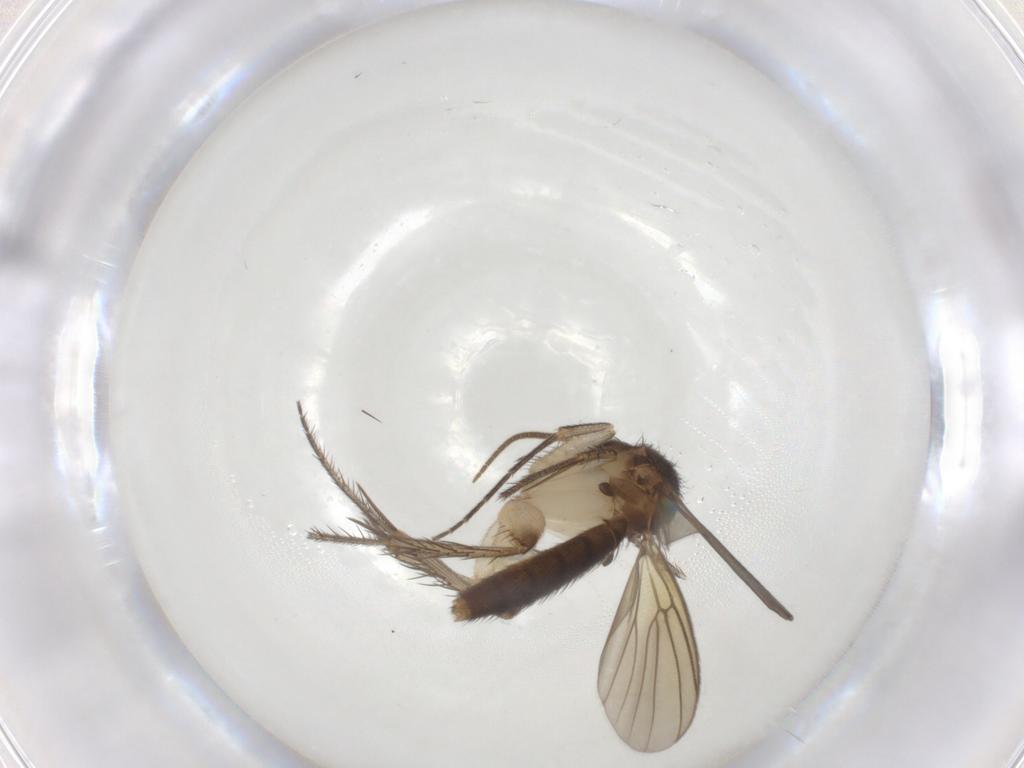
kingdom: Animalia
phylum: Arthropoda
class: Insecta
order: Diptera
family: Mycetophilidae
